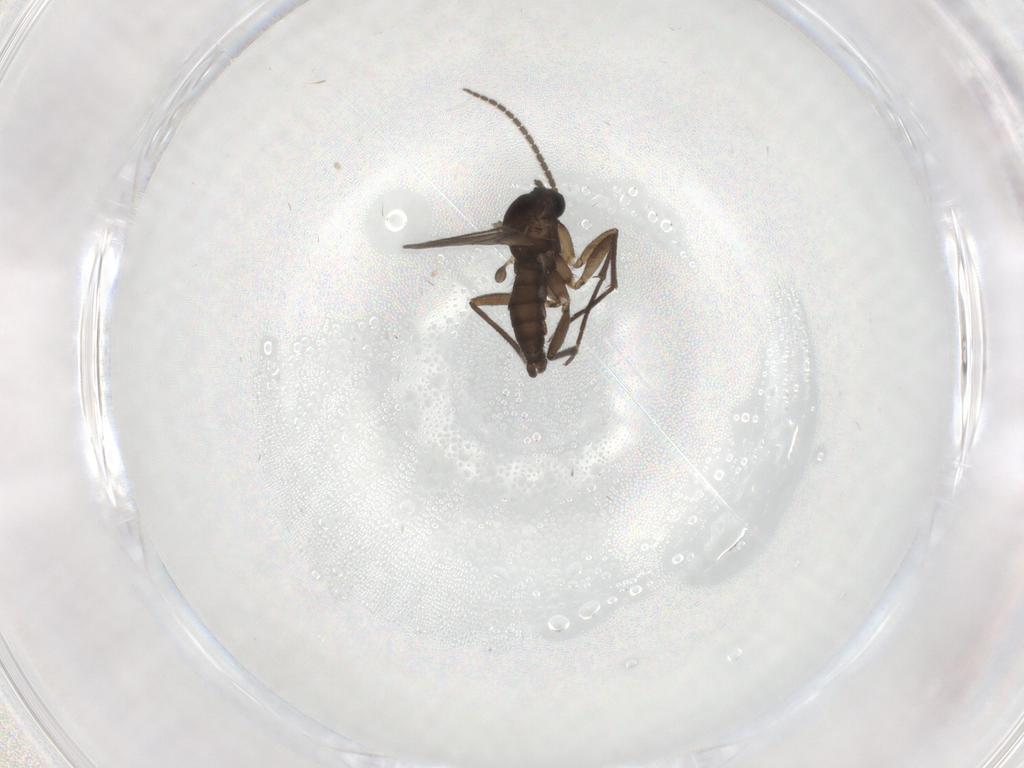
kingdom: Animalia
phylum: Arthropoda
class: Insecta
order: Diptera
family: Sciaridae
